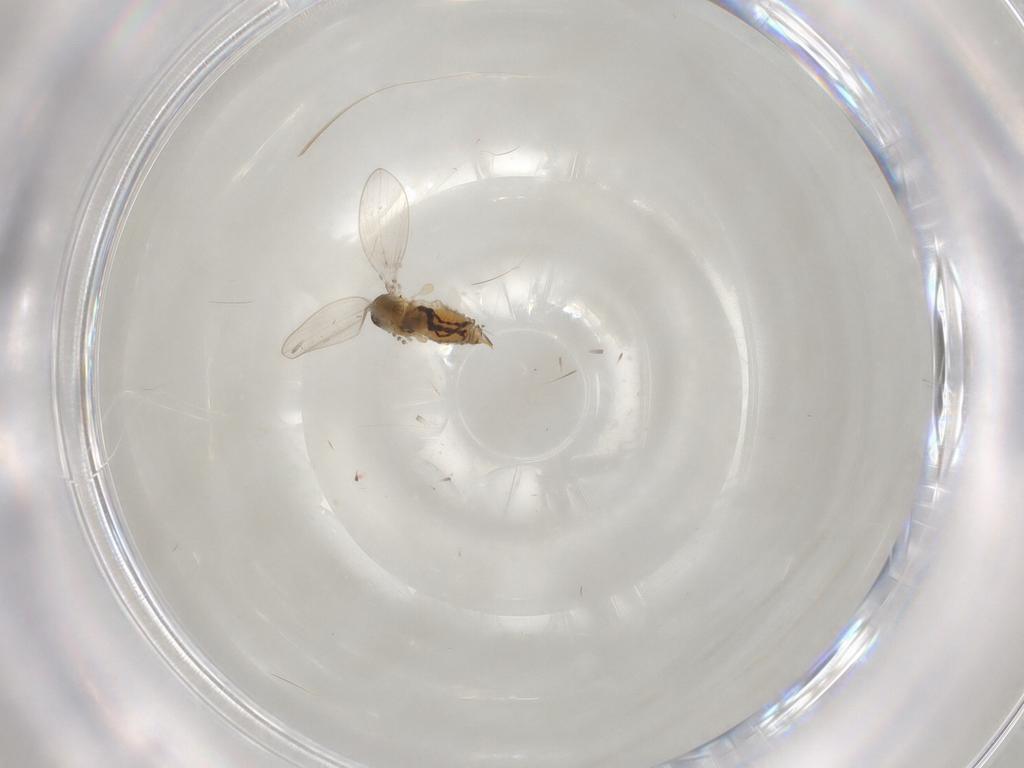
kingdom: Animalia
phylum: Arthropoda
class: Insecta
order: Diptera
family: Psychodidae
